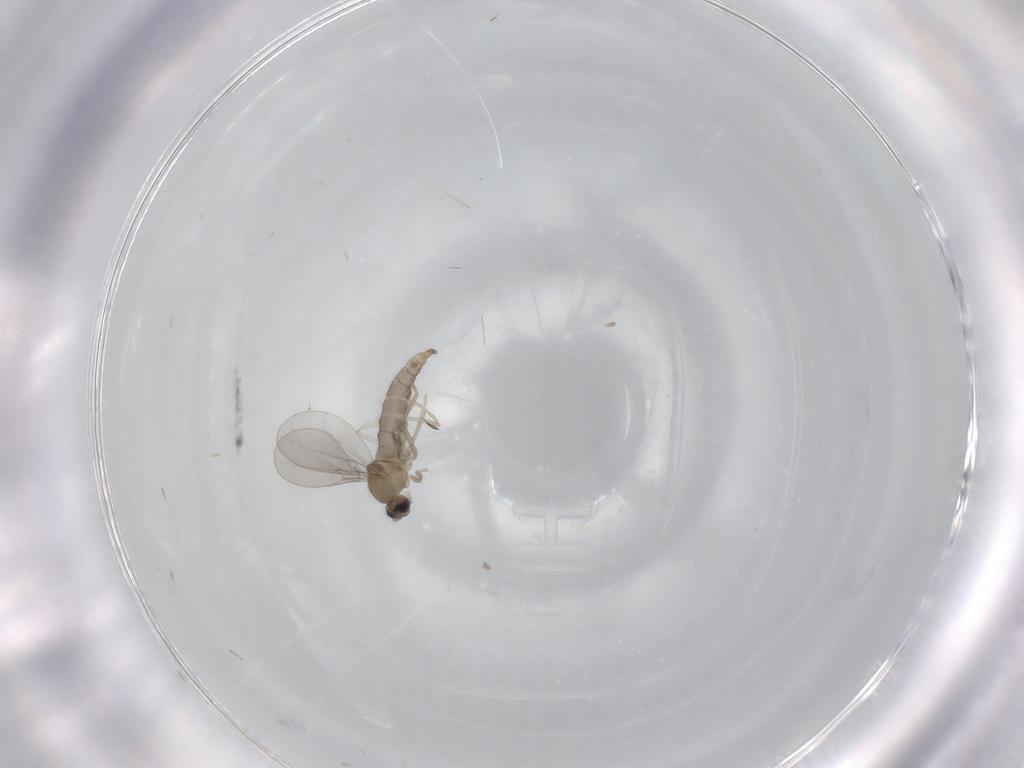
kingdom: Animalia
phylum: Arthropoda
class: Insecta
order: Diptera
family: Cecidomyiidae
